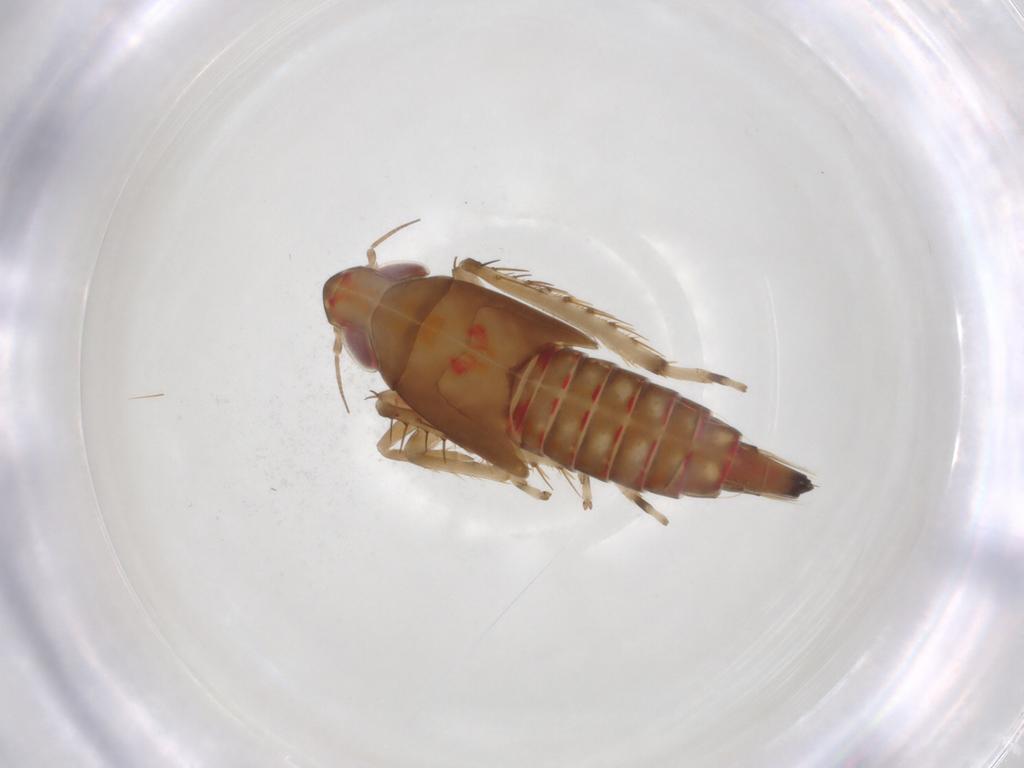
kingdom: Animalia
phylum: Arthropoda
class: Insecta
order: Hemiptera
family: Cicadellidae
